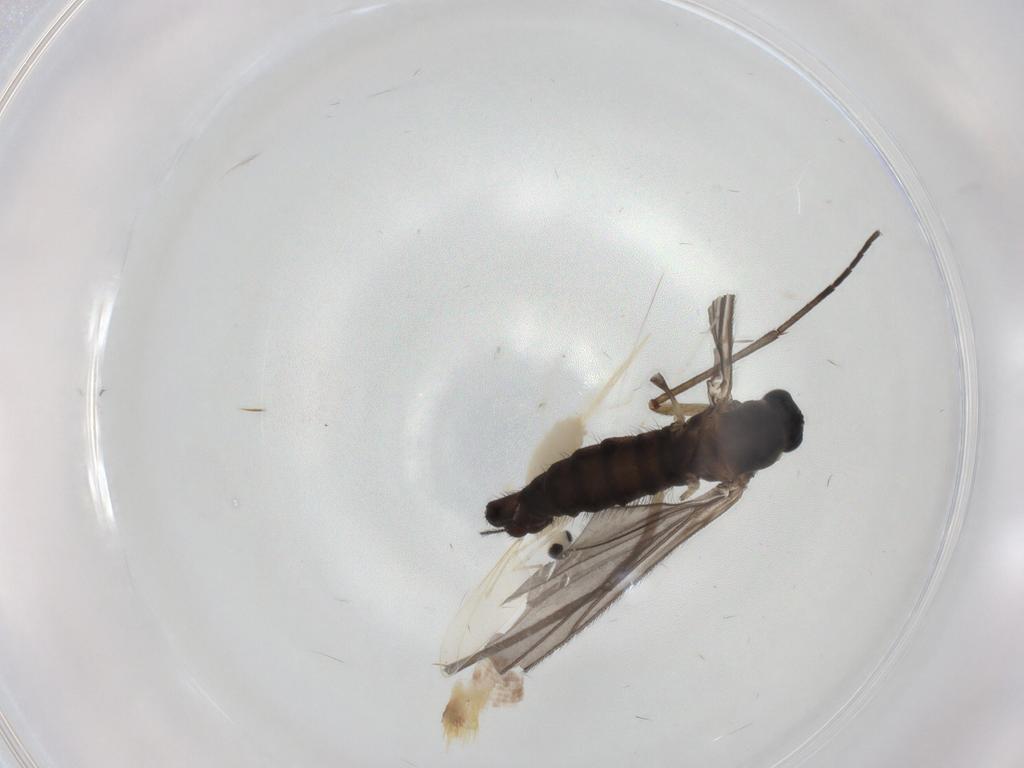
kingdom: Animalia
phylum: Arthropoda
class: Insecta
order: Diptera
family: Sciaridae
